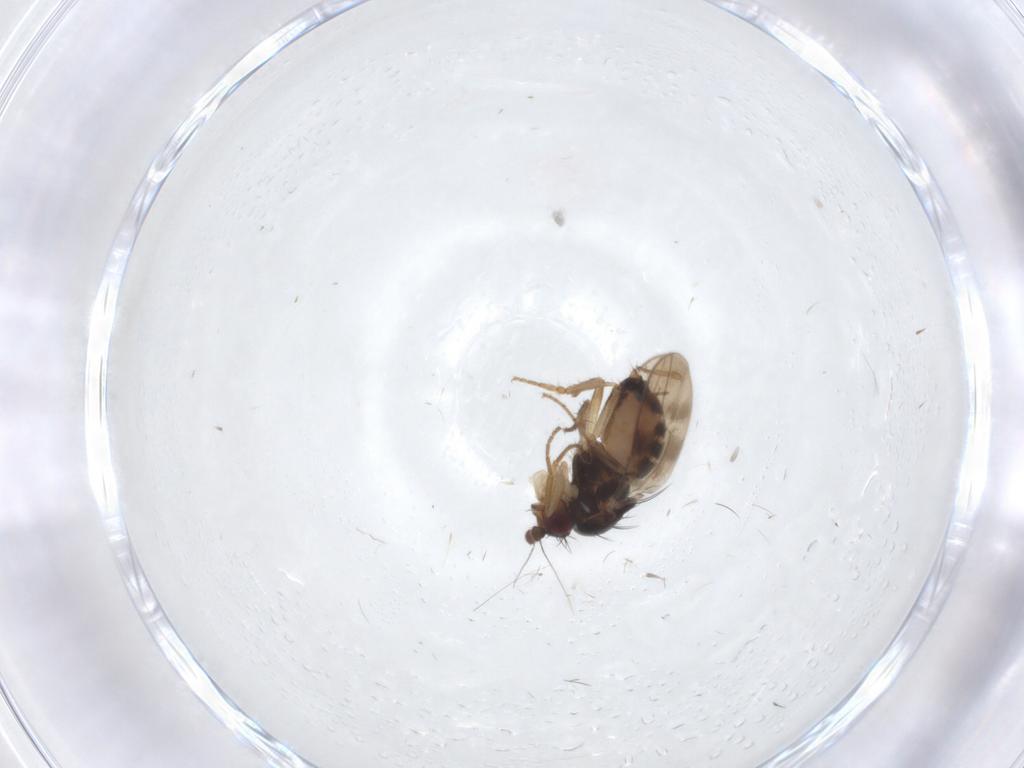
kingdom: Animalia
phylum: Arthropoda
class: Insecta
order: Diptera
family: Sphaeroceridae
